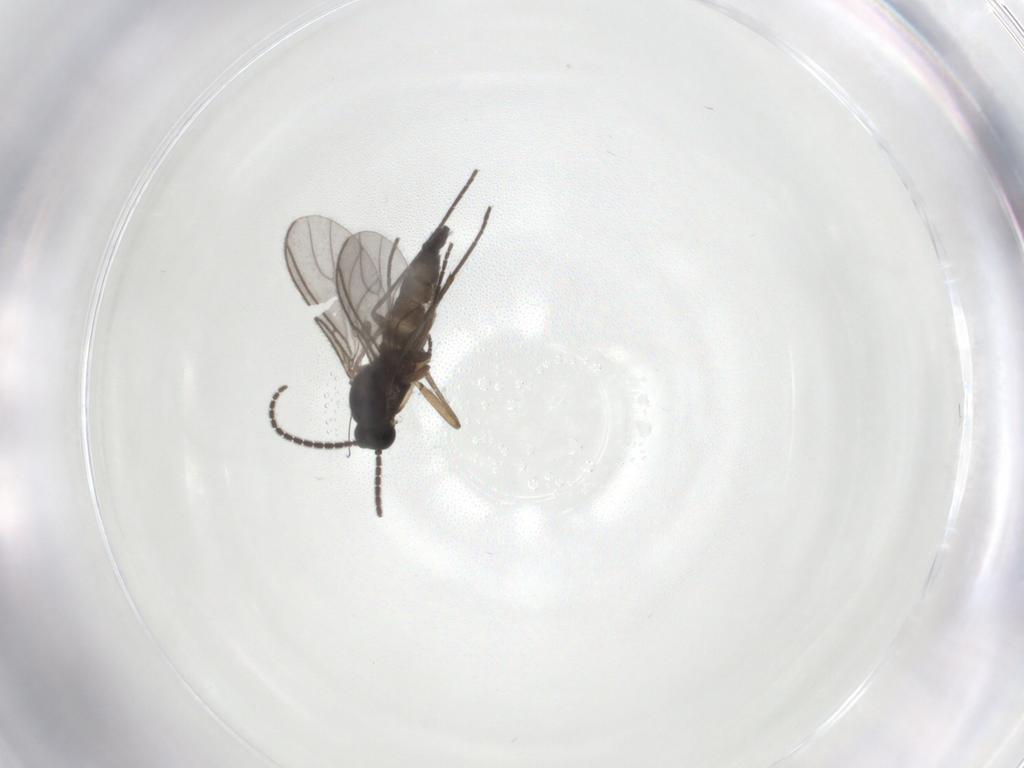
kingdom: Animalia
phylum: Arthropoda
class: Insecta
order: Diptera
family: Sciaridae
